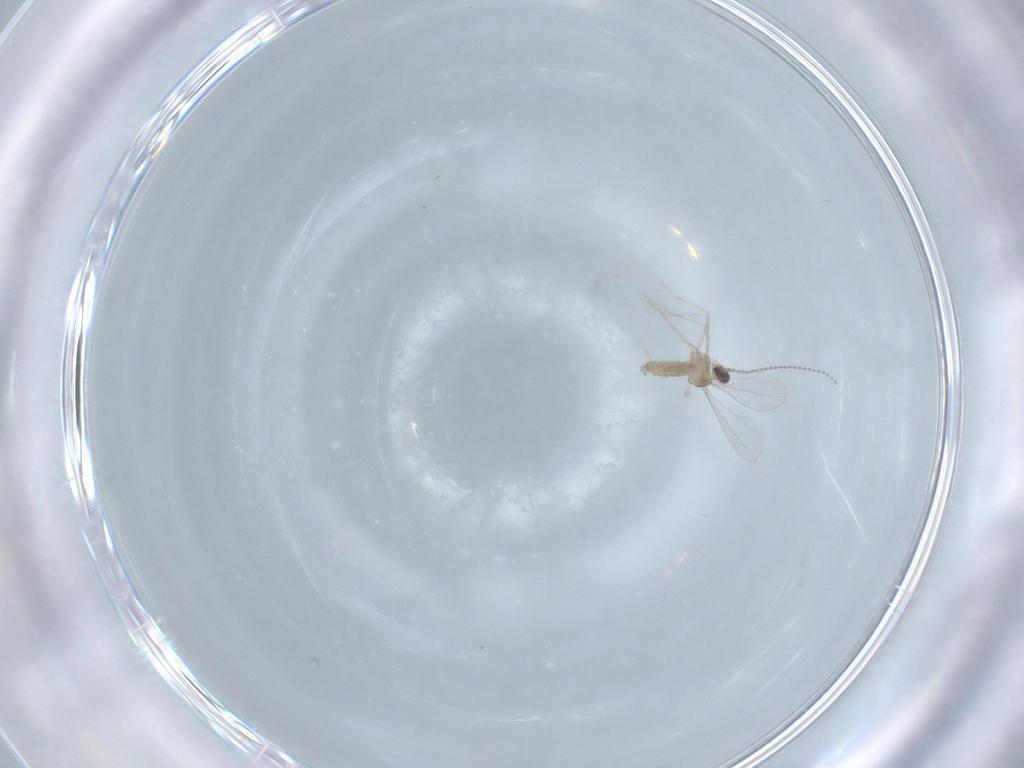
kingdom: Animalia
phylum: Arthropoda
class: Insecta
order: Diptera
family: Cecidomyiidae
